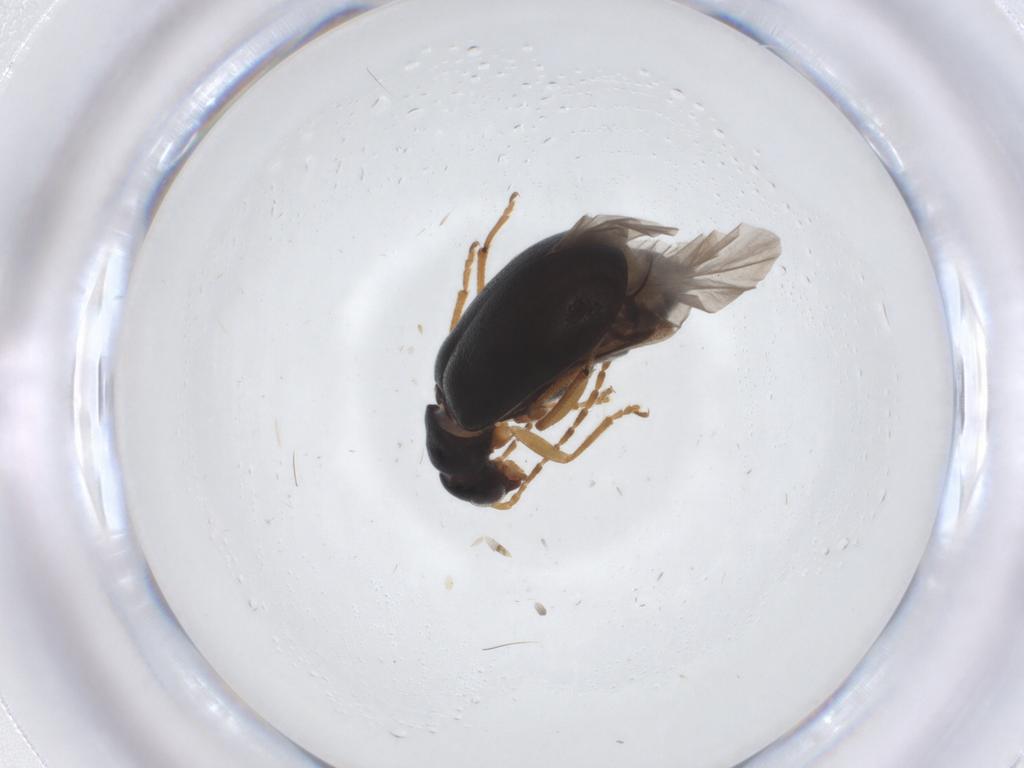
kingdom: Animalia
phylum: Arthropoda
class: Insecta
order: Coleoptera
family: Chrysomelidae
